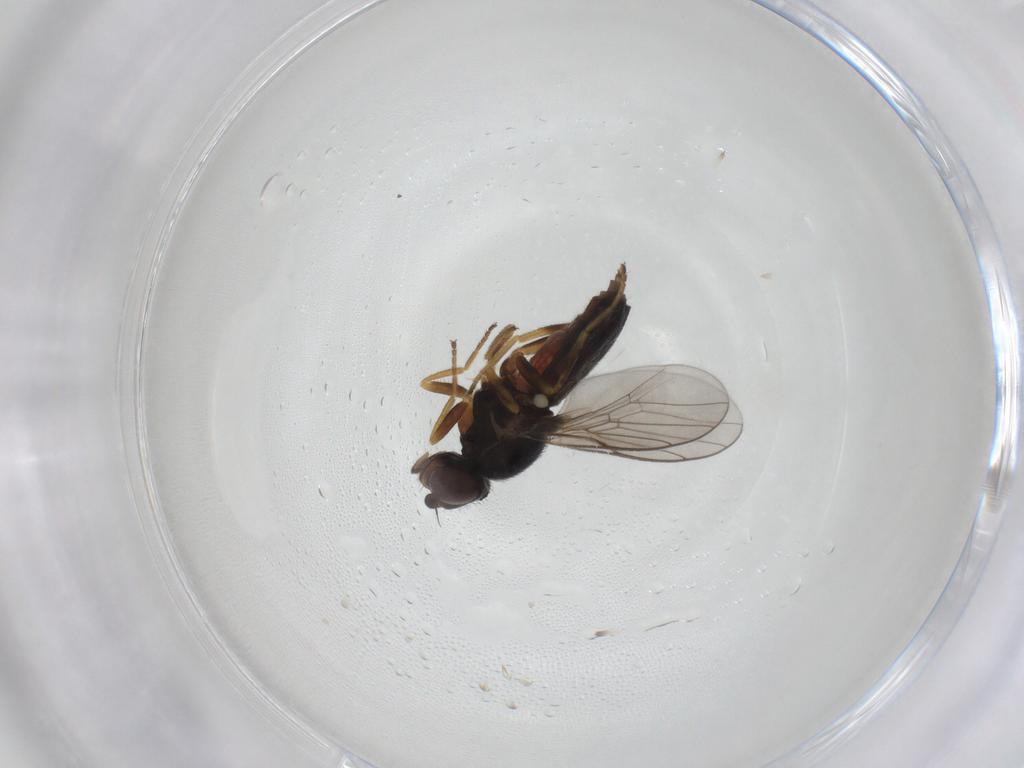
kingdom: Animalia
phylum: Arthropoda
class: Insecta
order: Diptera
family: Chloropidae
